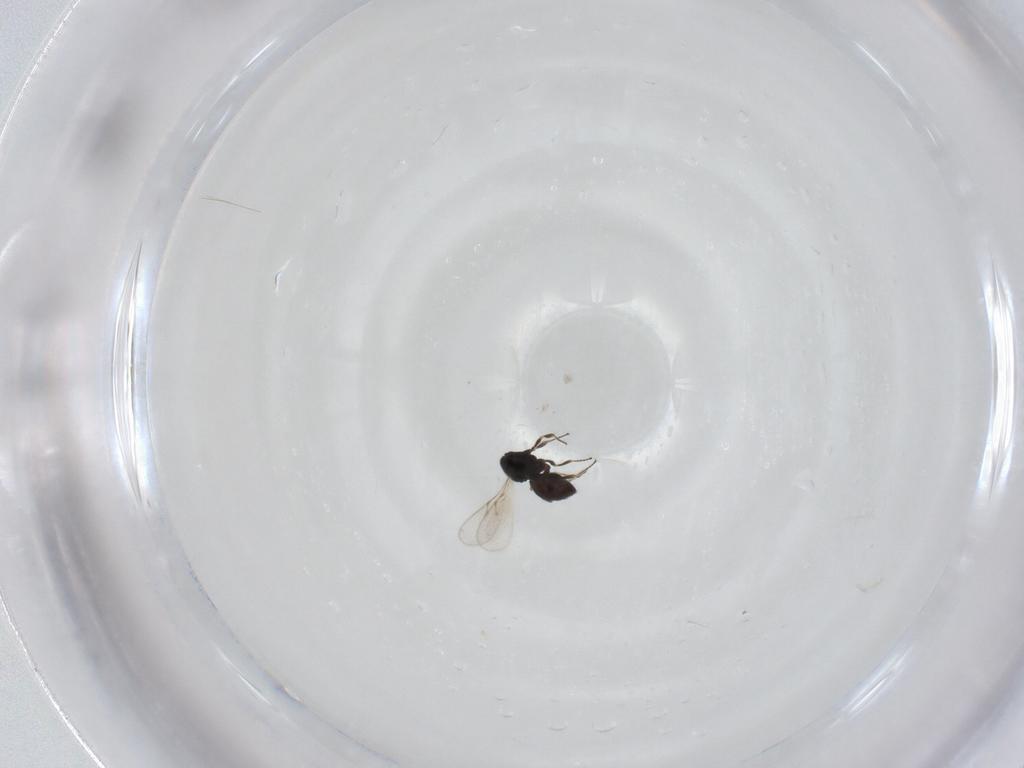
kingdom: Animalia
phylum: Arthropoda
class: Insecta
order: Hymenoptera
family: Scelionidae
